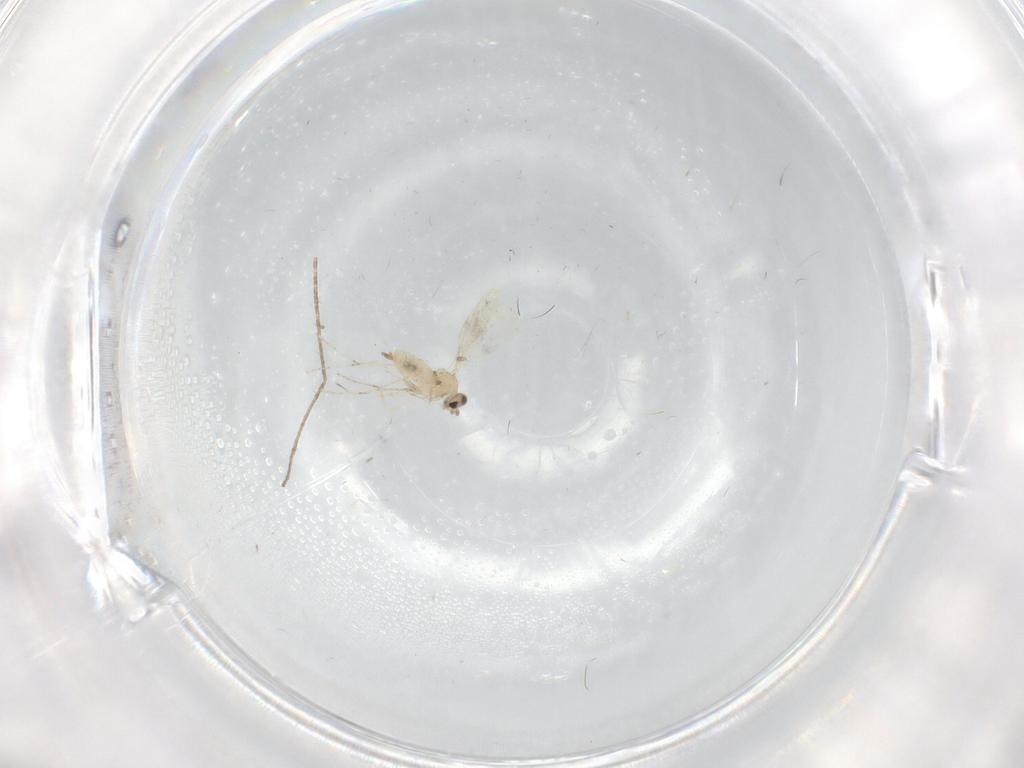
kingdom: Animalia
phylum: Arthropoda
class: Insecta
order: Diptera
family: Cecidomyiidae
